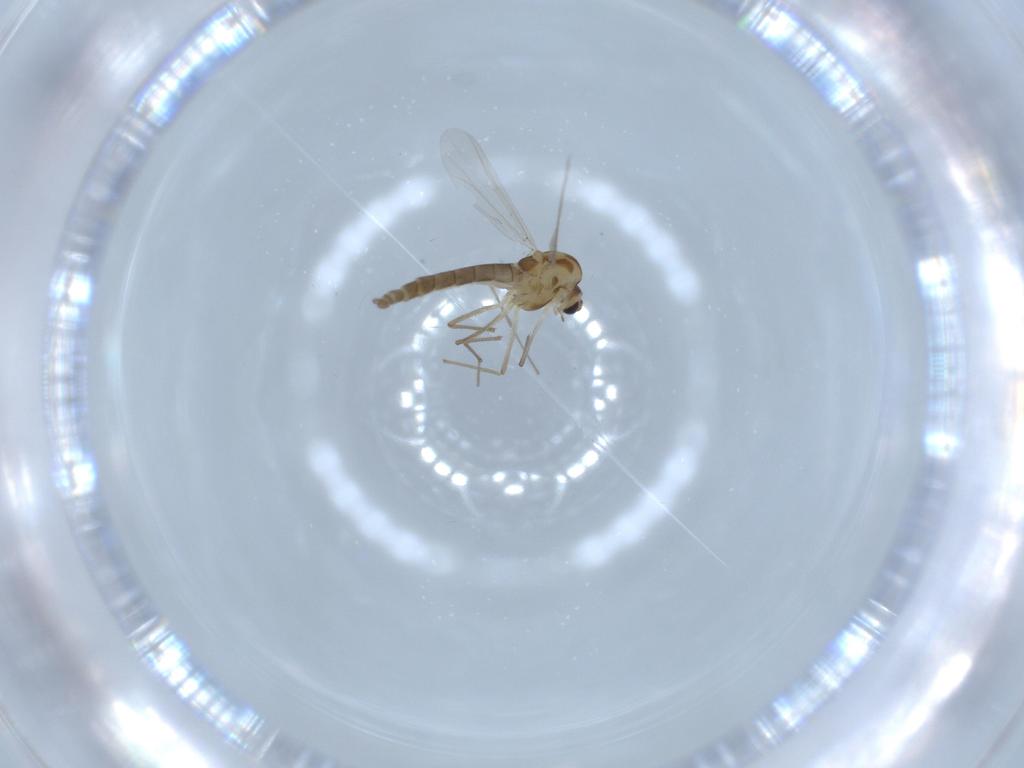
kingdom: Animalia
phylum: Arthropoda
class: Insecta
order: Diptera
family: Chironomidae
